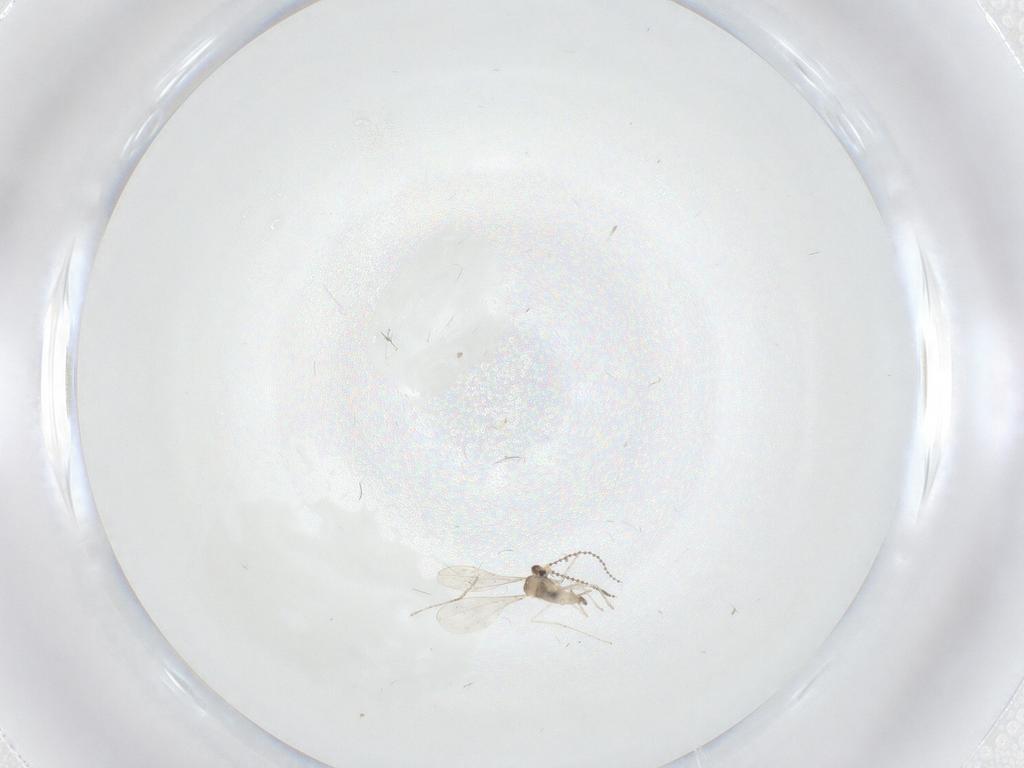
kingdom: Animalia
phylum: Arthropoda
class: Insecta
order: Diptera
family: Cecidomyiidae
